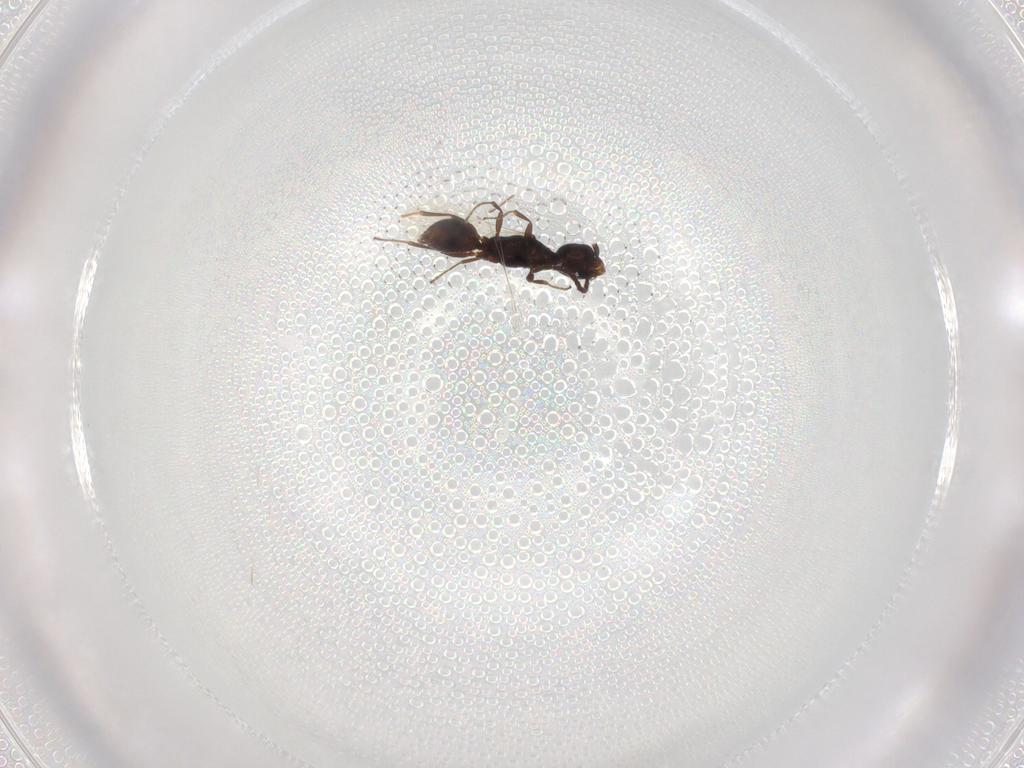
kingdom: Animalia
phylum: Arthropoda
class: Insecta
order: Hymenoptera
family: Bethylidae
